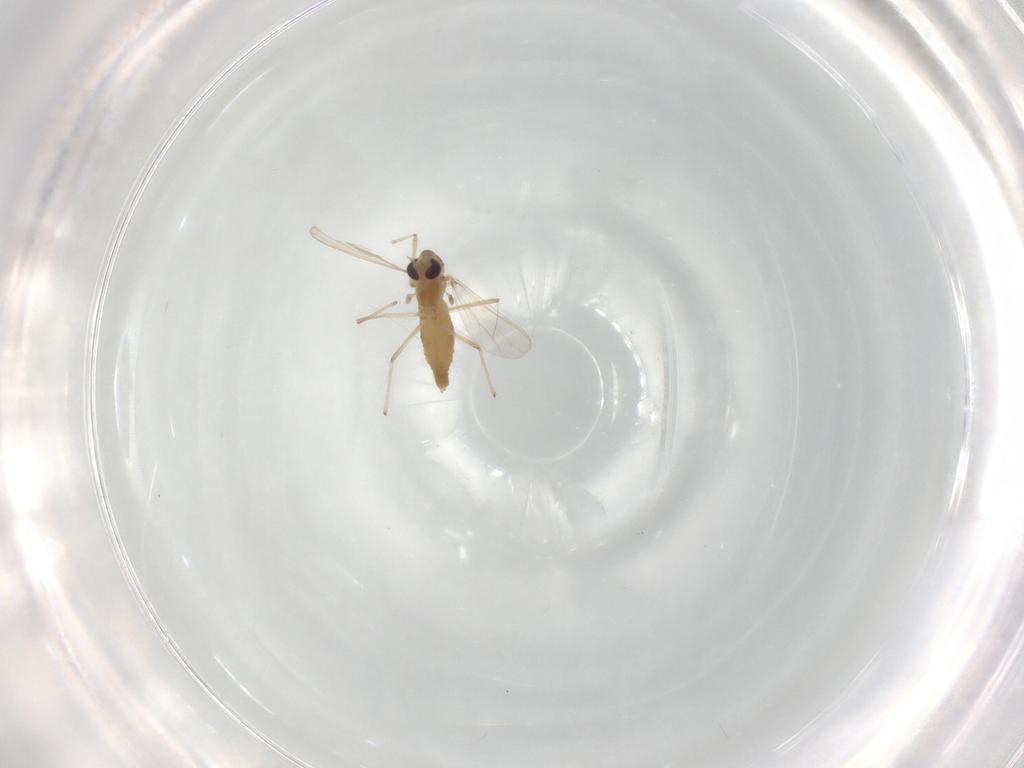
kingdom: Animalia
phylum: Arthropoda
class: Insecta
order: Diptera
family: Chironomidae
